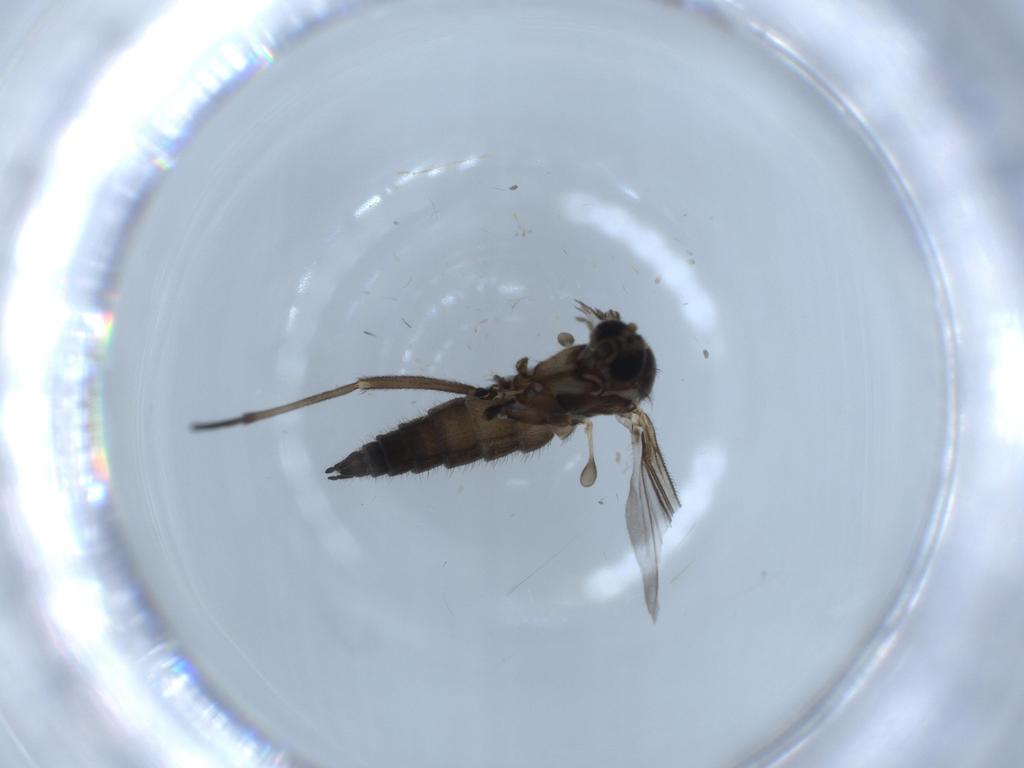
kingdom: Animalia
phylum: Arthropoda
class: Insecta
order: Diptera
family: Sciaridae
